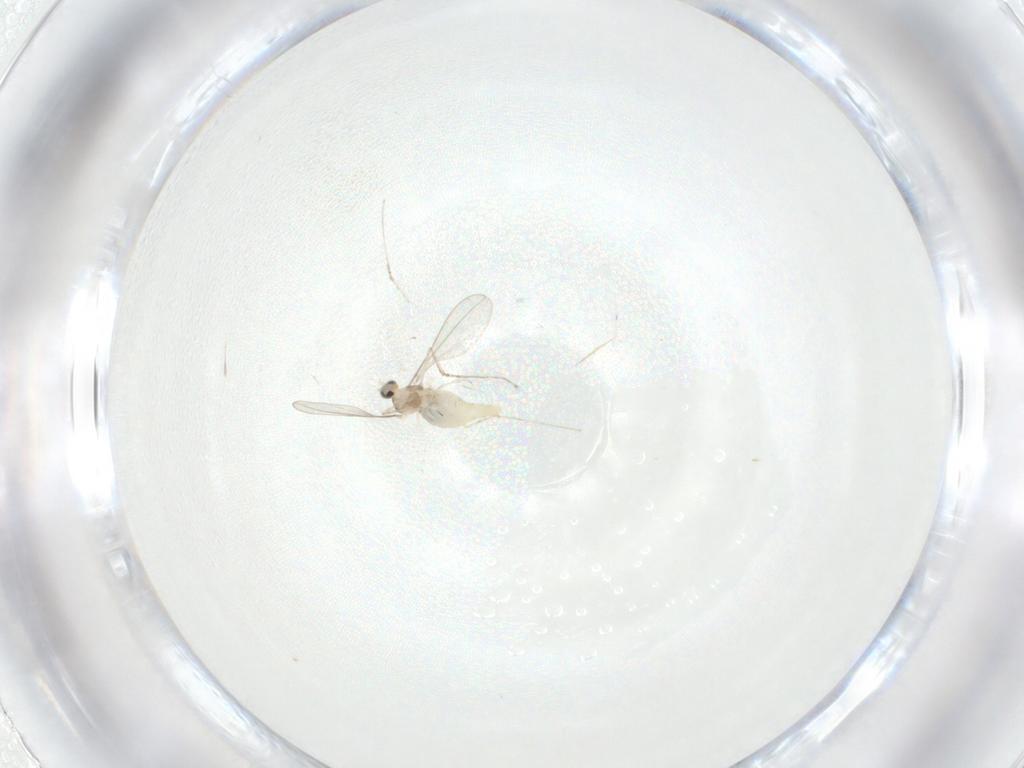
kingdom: Animalia
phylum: Arthropoda
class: Insecta
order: Diptera
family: Cecidomyiidae
